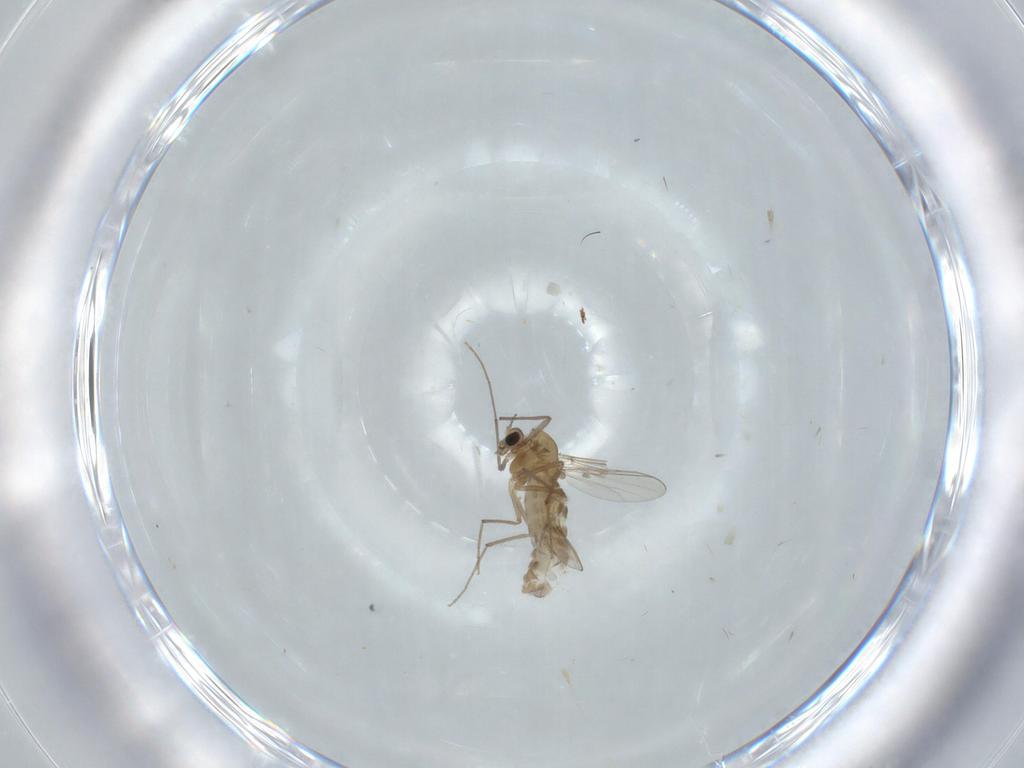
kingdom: Animalia
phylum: Arthropoda
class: Insecta
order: Diptera
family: Chironomidae
